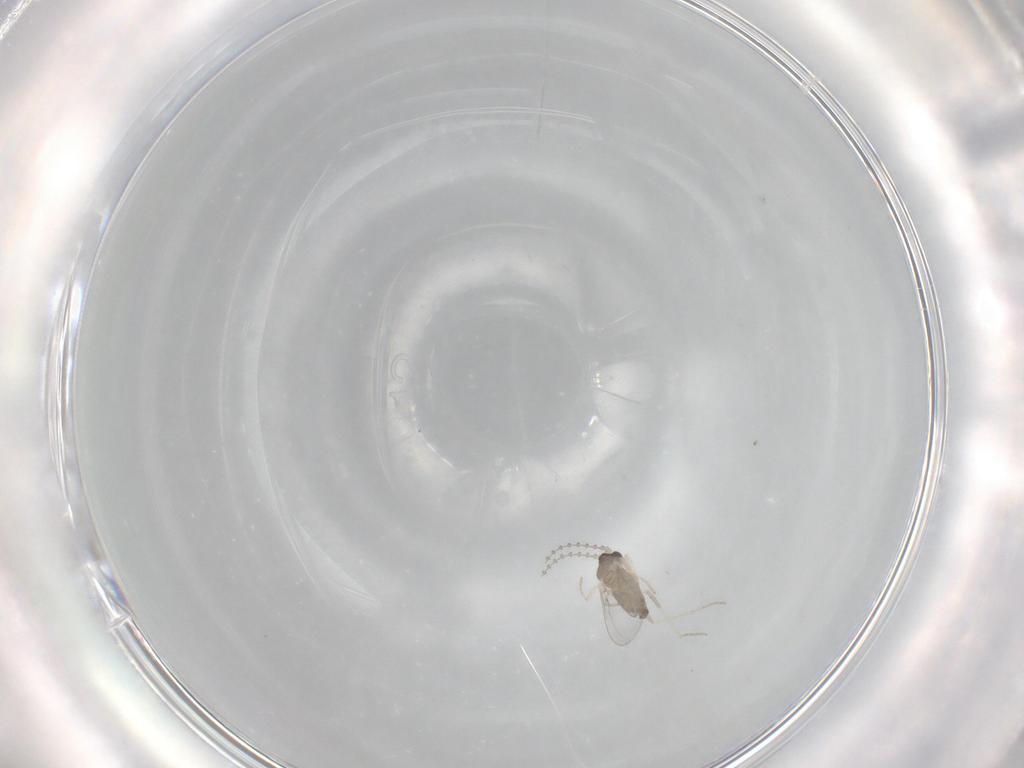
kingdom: Animalia
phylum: Arthropoda
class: Insecta
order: Diptera
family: Cecidomyiidae
